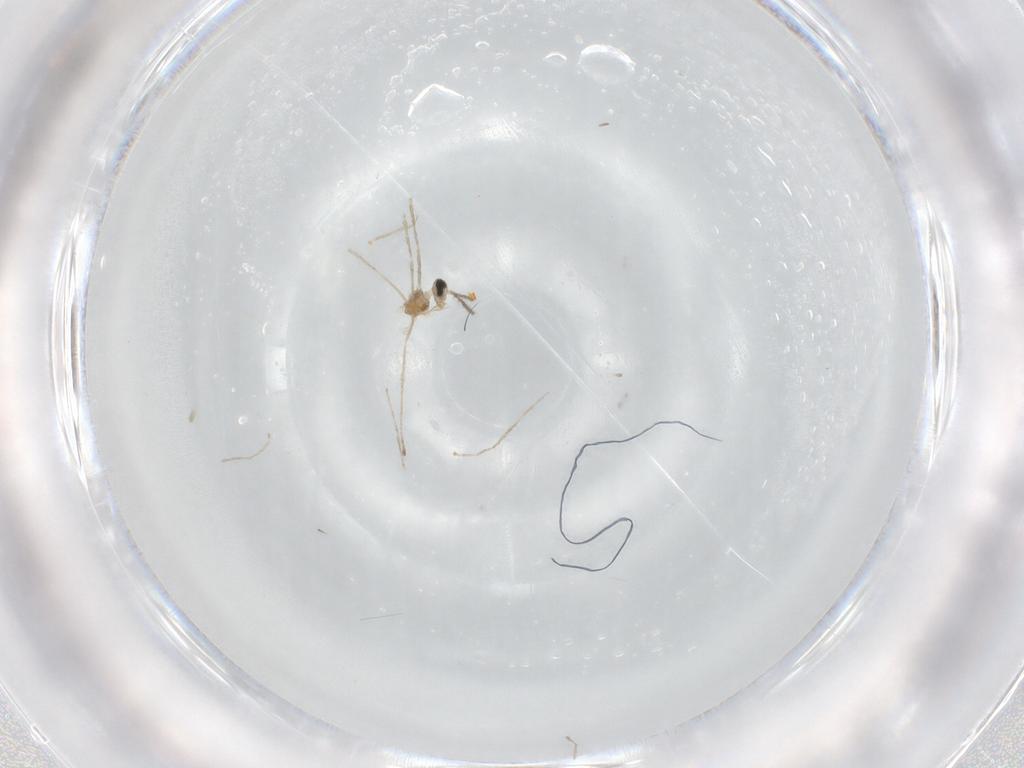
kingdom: Animalia
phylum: Arthropoda
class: Insecta
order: Diptera
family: Cecidomyiidae
